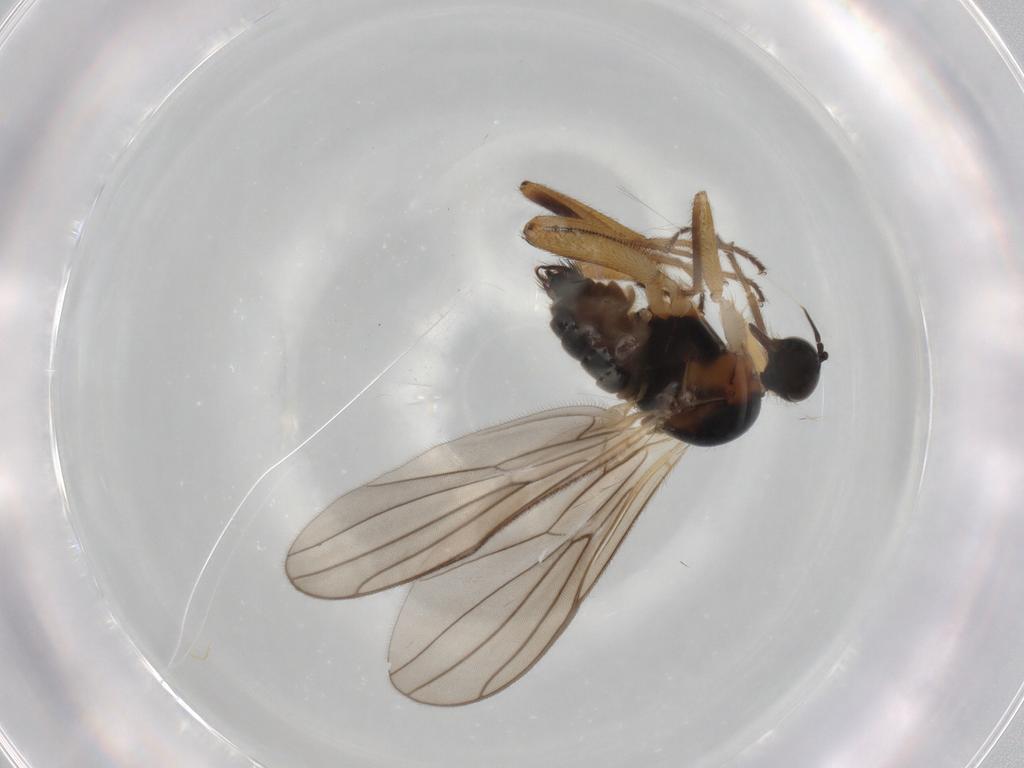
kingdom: Animalia
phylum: Arthropoda
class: Insecta
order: Diptera
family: Hybotidae
